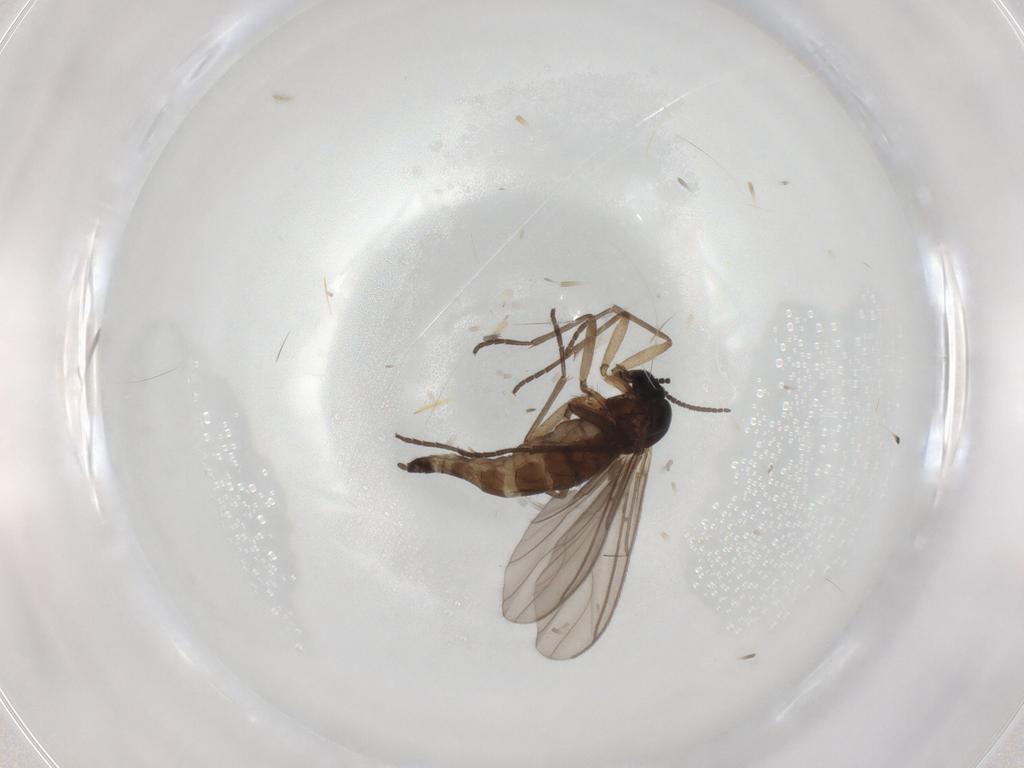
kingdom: Animalia
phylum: Arthropoda
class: Insecta
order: Diptera
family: Sciaridae
